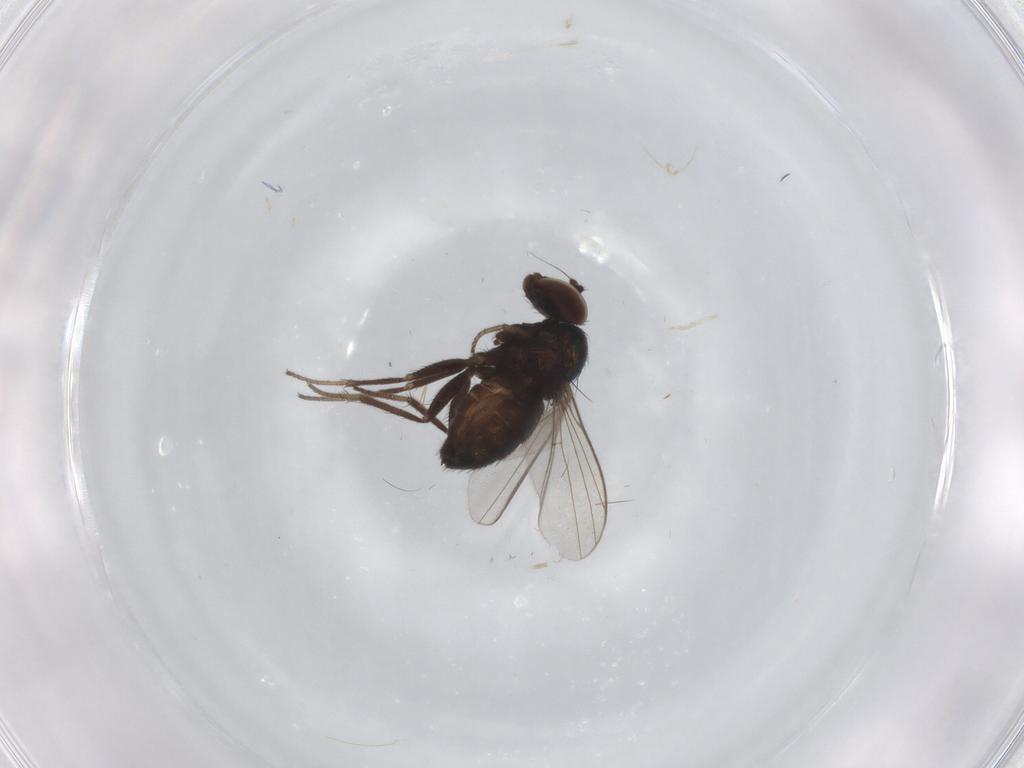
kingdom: Animalia
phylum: Arthropoda
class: Insecta
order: Diptera
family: Dolichopodidae
